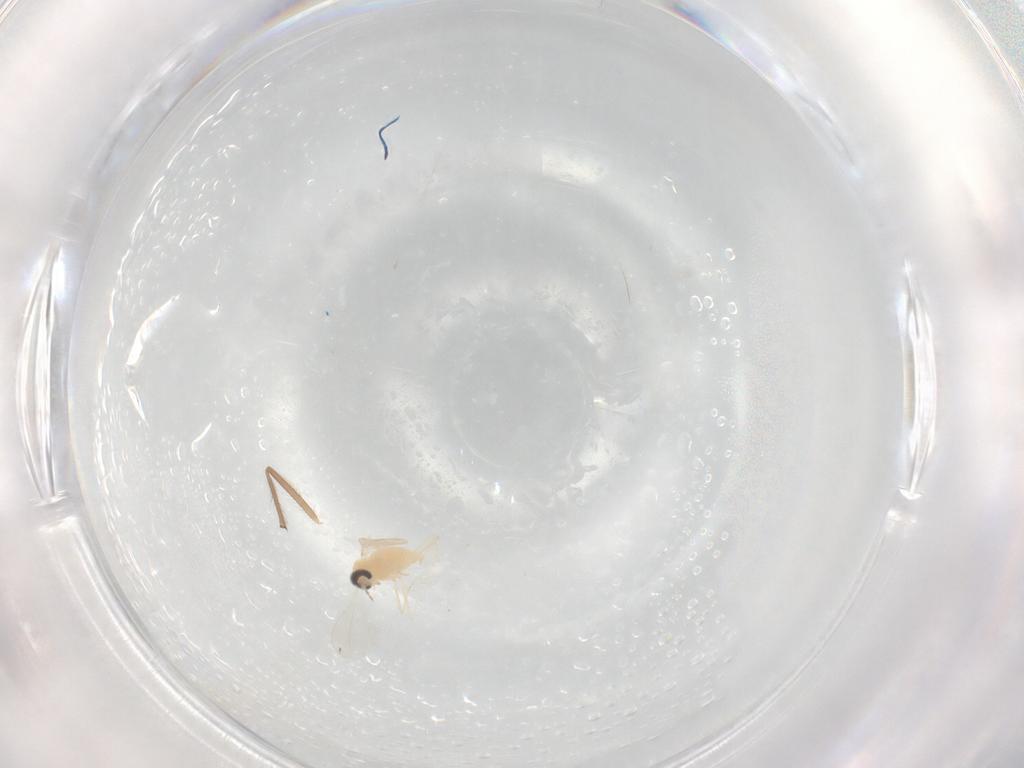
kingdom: Animalia
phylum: Arthropoda
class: Insecta
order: Diptera
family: Cecidomyiidae
